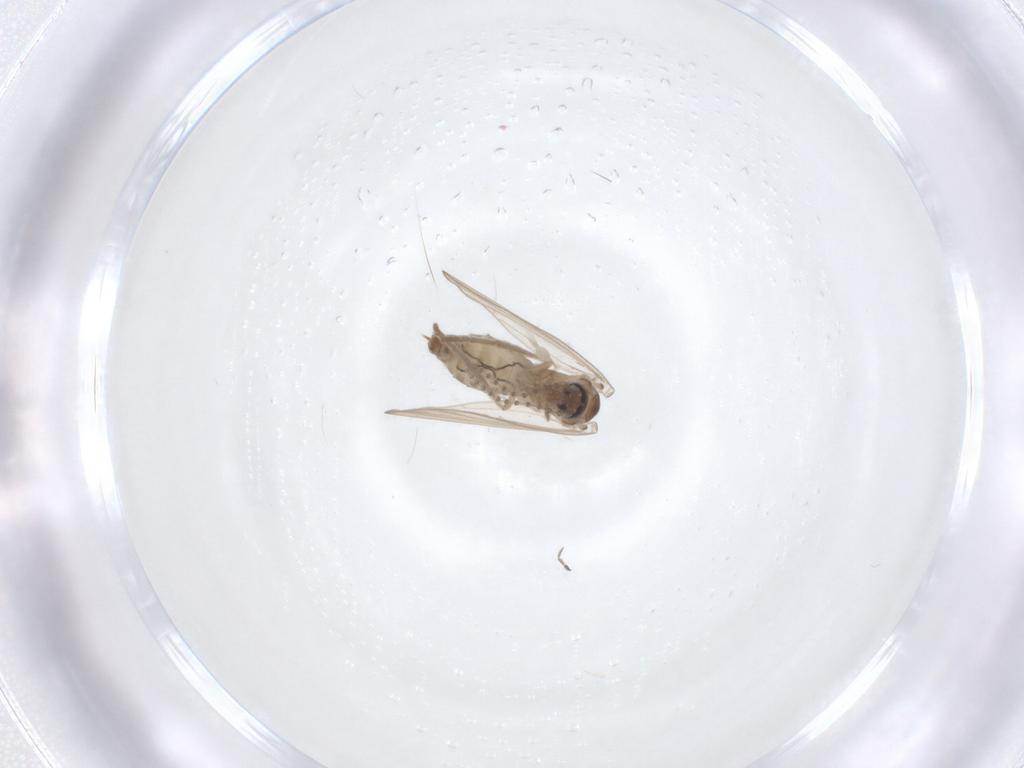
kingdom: Animalia
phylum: Arthropoda
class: Insecta
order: Diptera
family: Psychodidae
